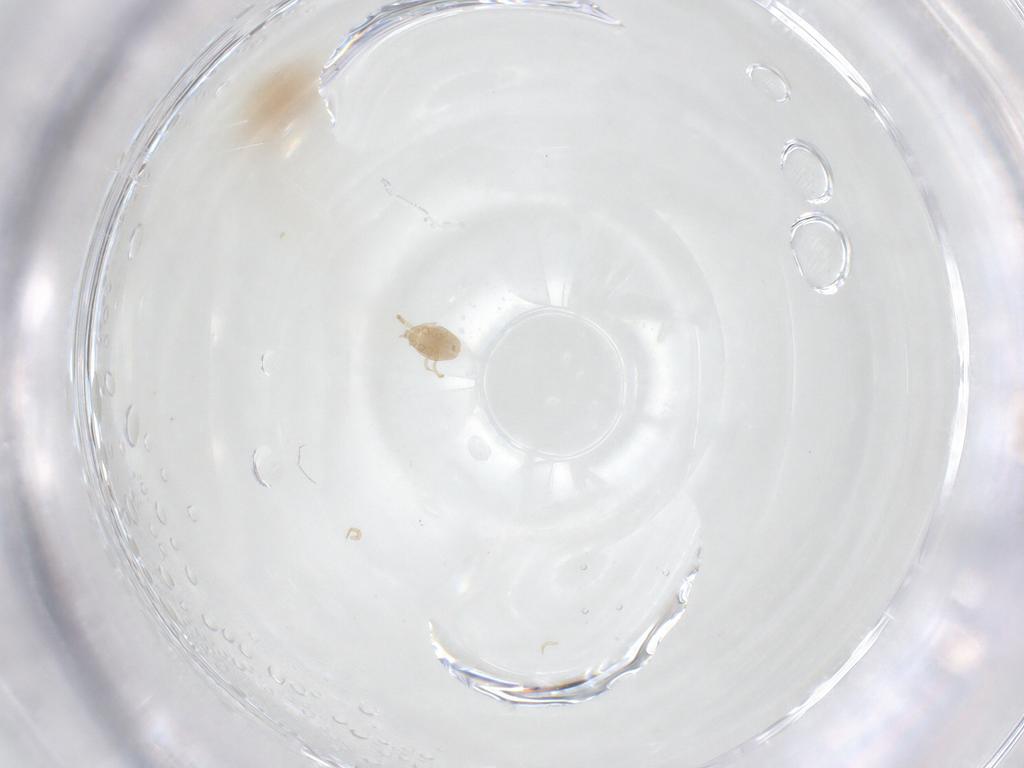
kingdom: Animalia
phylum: Arthropoda
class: Insecta
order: Diptera
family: Cecidomyiidae
